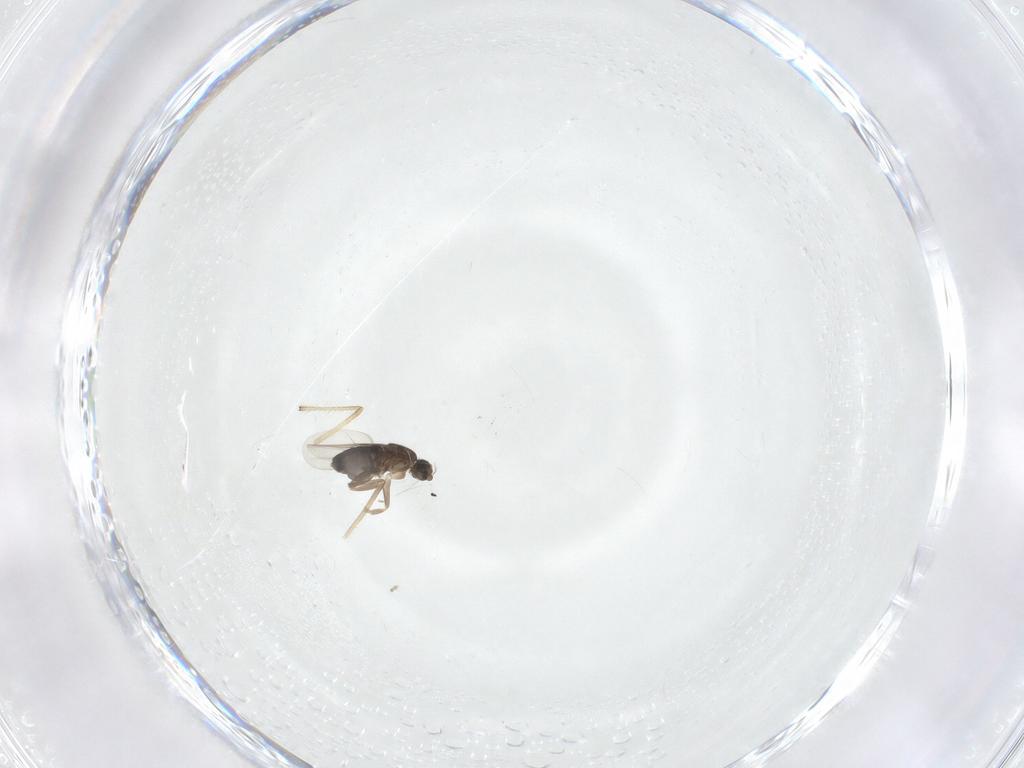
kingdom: Animalia
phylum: Arthropoda
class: Insecta
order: Diptera
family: Phoridae
